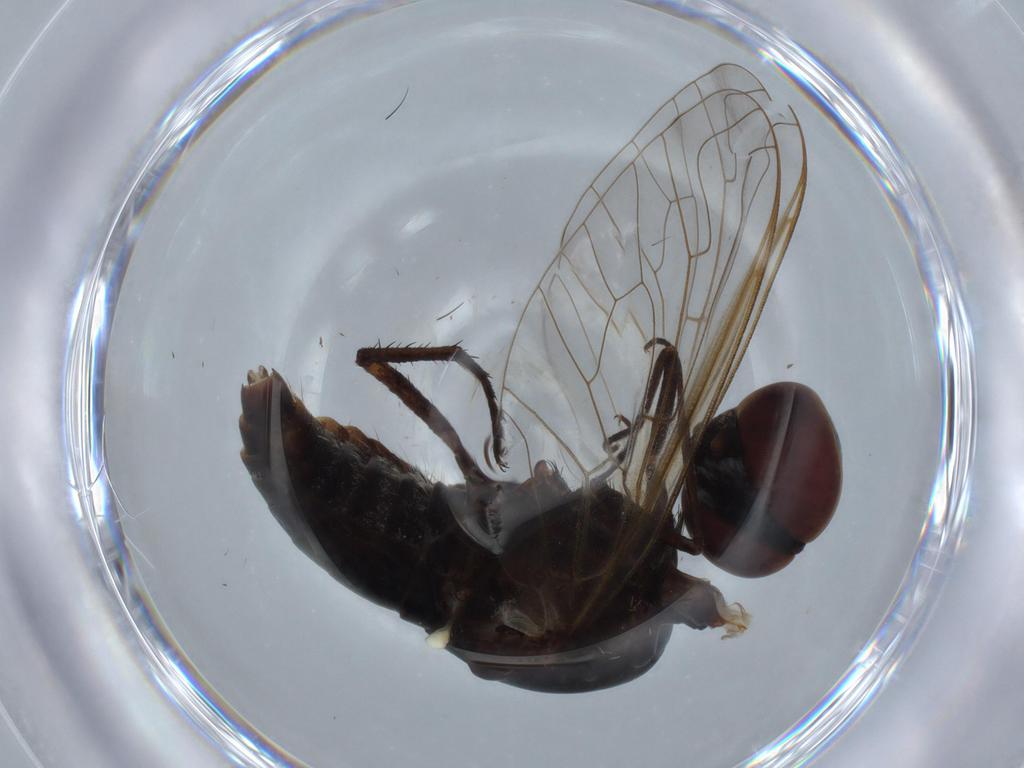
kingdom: Animalia
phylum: Arthropoda
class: Insecta
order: Diptera
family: Bombyliidae
